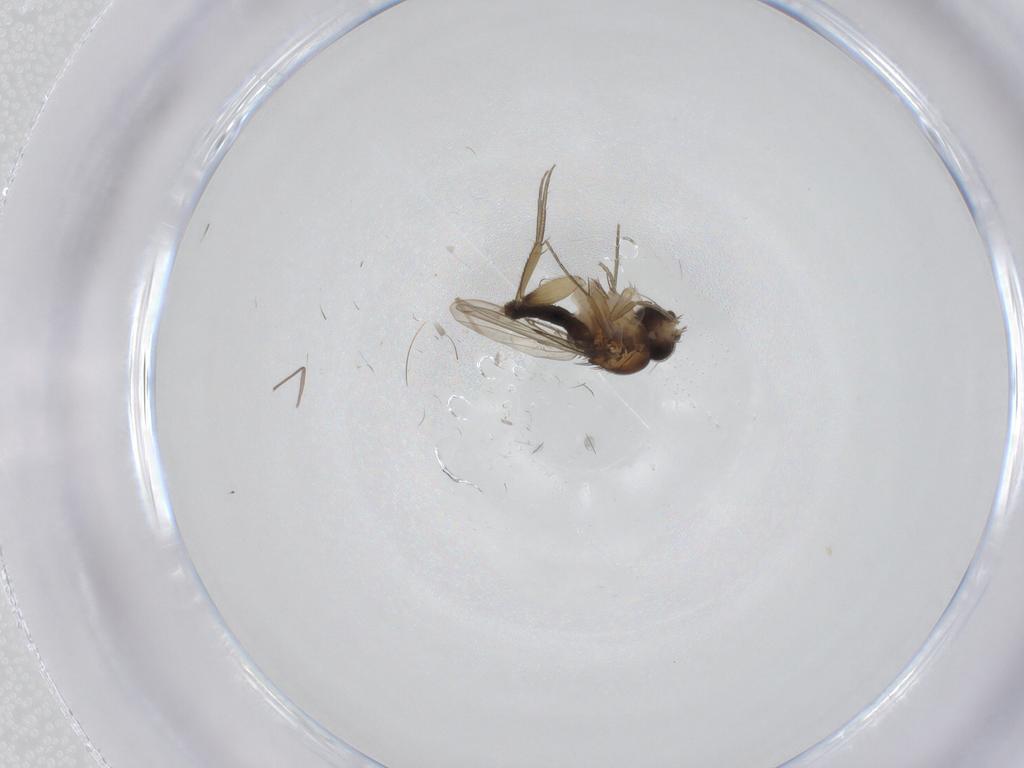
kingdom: Animalia
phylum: Arthropoda
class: Insecta
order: Diptera
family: Phoridae
